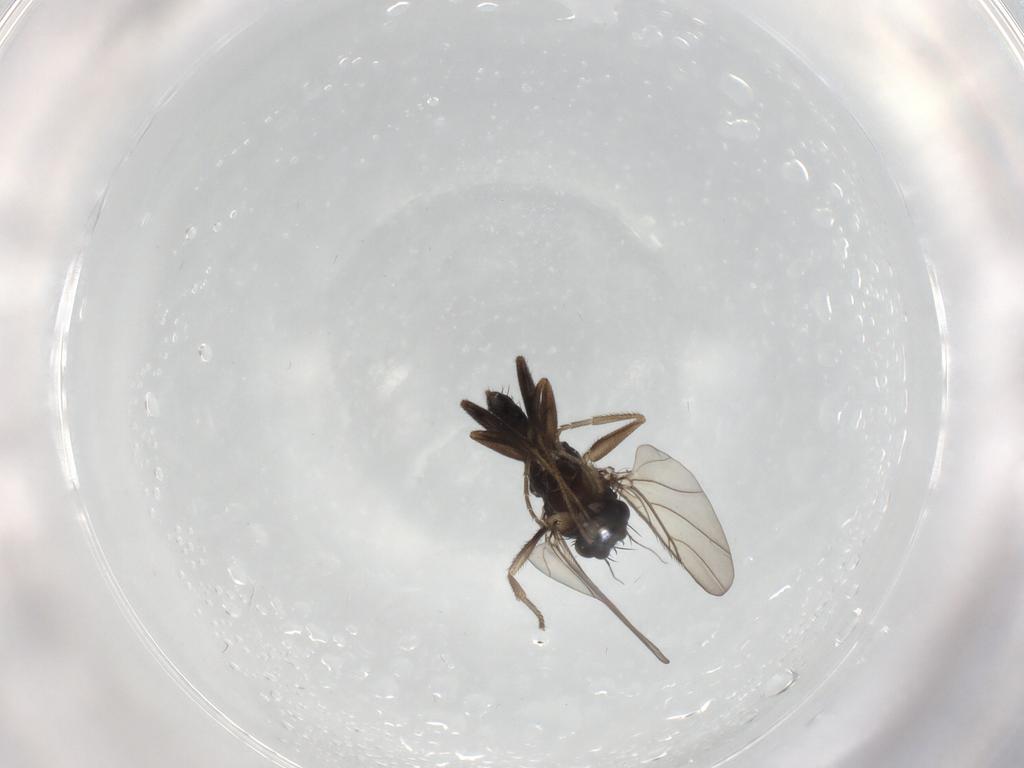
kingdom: Animalia
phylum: Arthropoda
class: Insecta
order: Diptera
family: Phoridae
